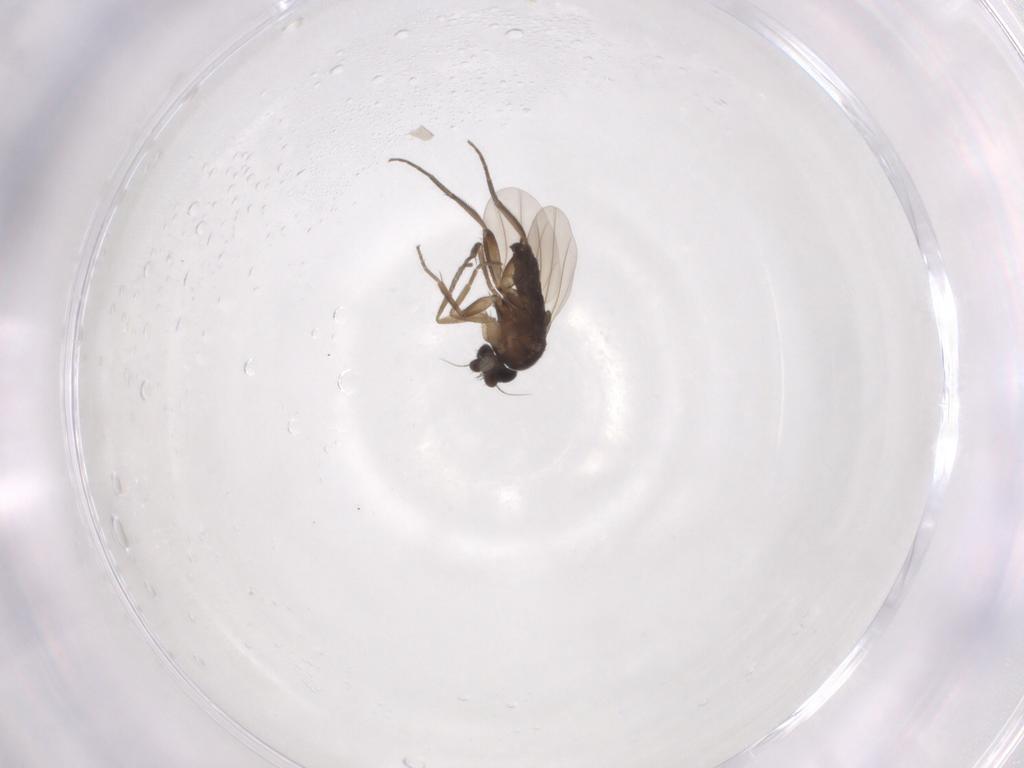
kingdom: Animalia
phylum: Arthropoda
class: Insecta
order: Diptera
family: Phoridae
